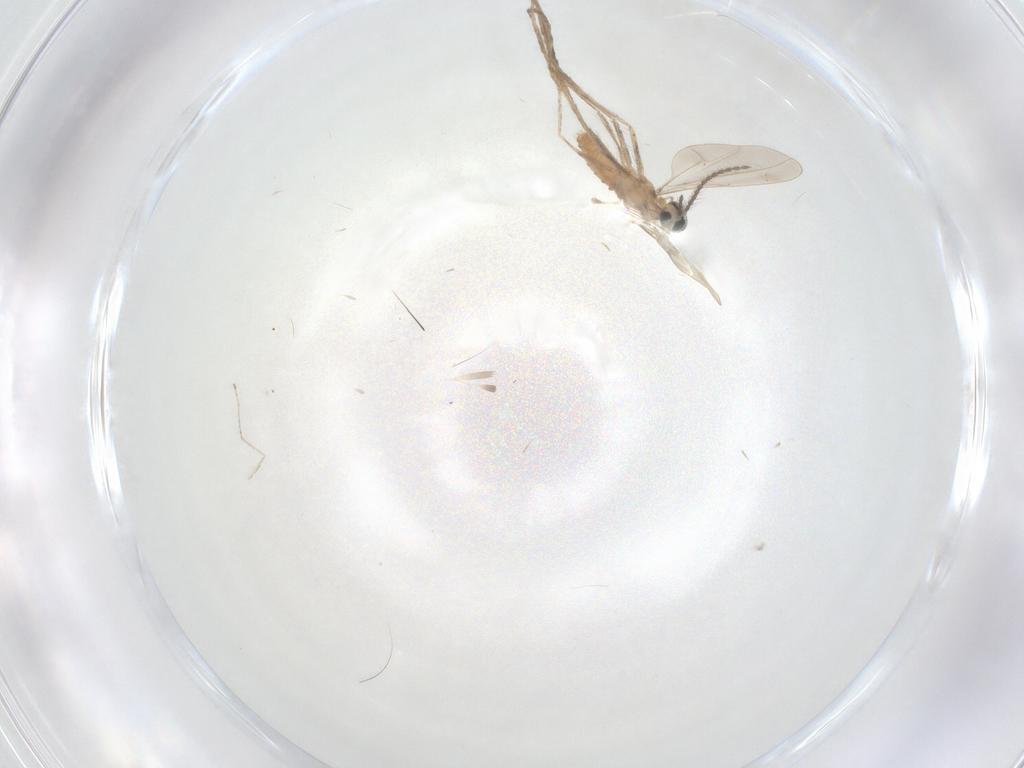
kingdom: Animalia
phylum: Arthropoda
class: Insecta
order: Diptera
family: Cecidomyiidae
